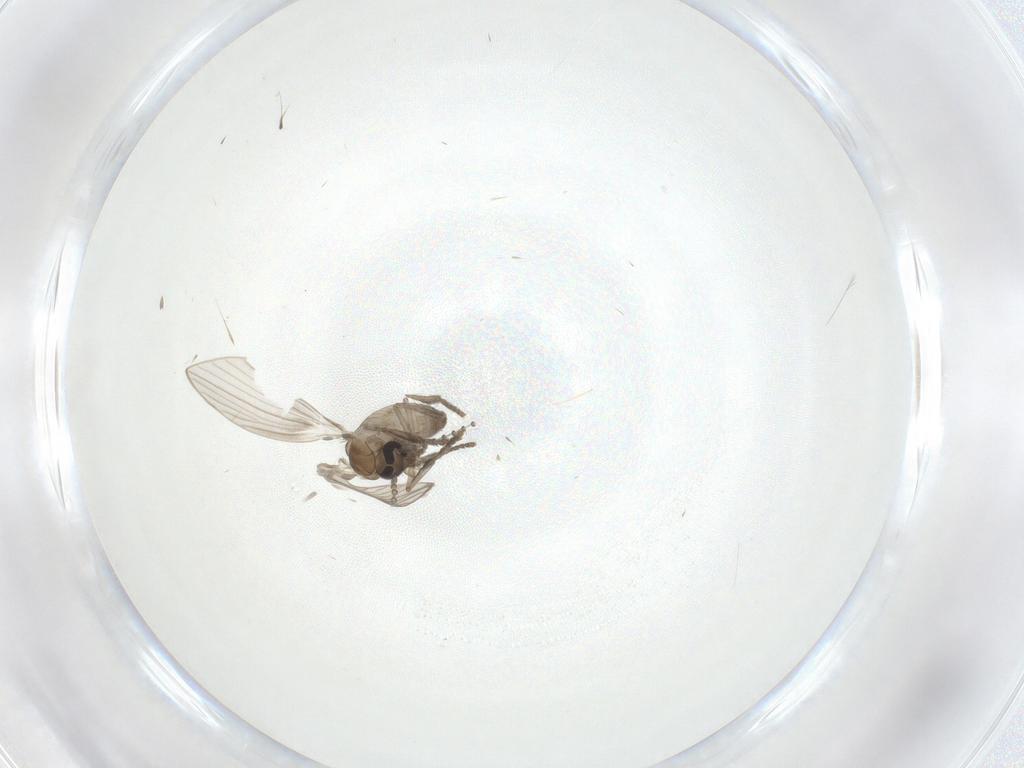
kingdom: Animalia
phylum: Arthropoda
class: Insecta
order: Diptera
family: Psychodidae
